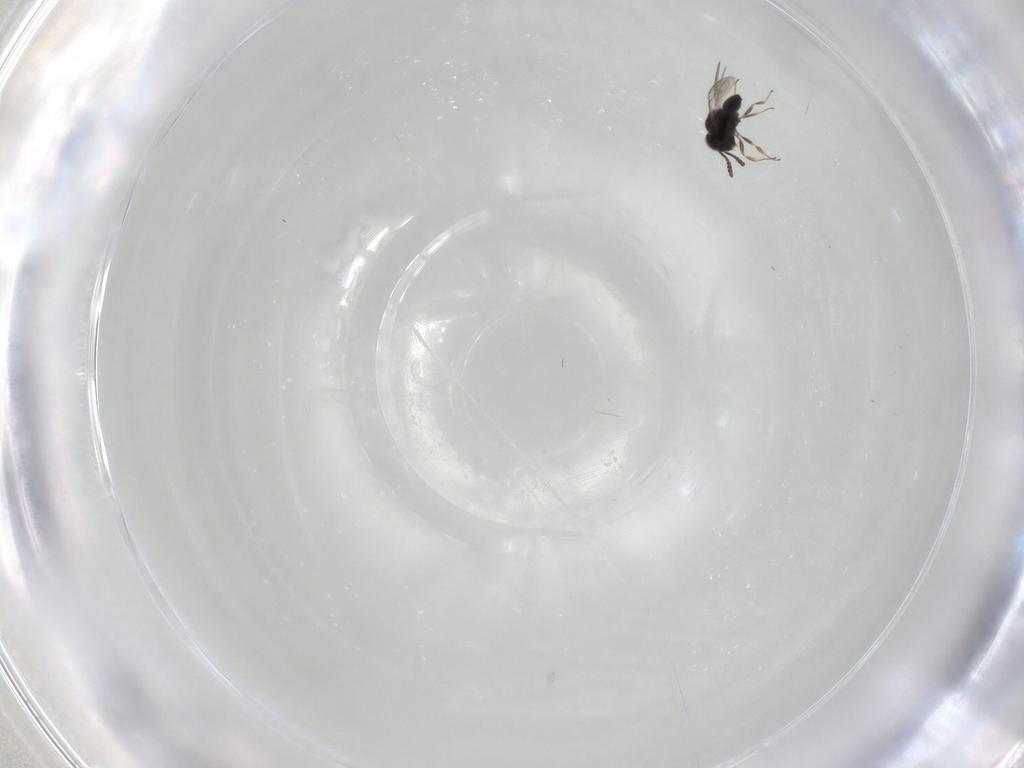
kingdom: Animalia
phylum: Arthropoda
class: Insecta
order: Hymenoptera
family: Scelionidae
